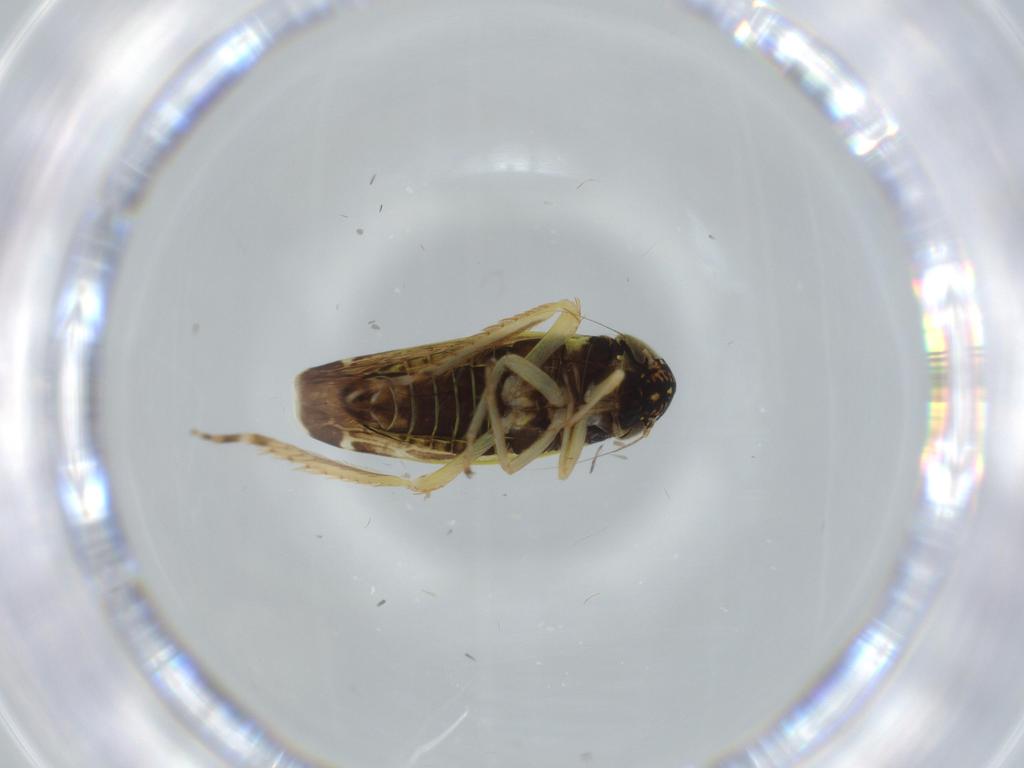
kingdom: Animalia
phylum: Arthropoda
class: Insecta
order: Hemiptera
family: Cicadellidae
